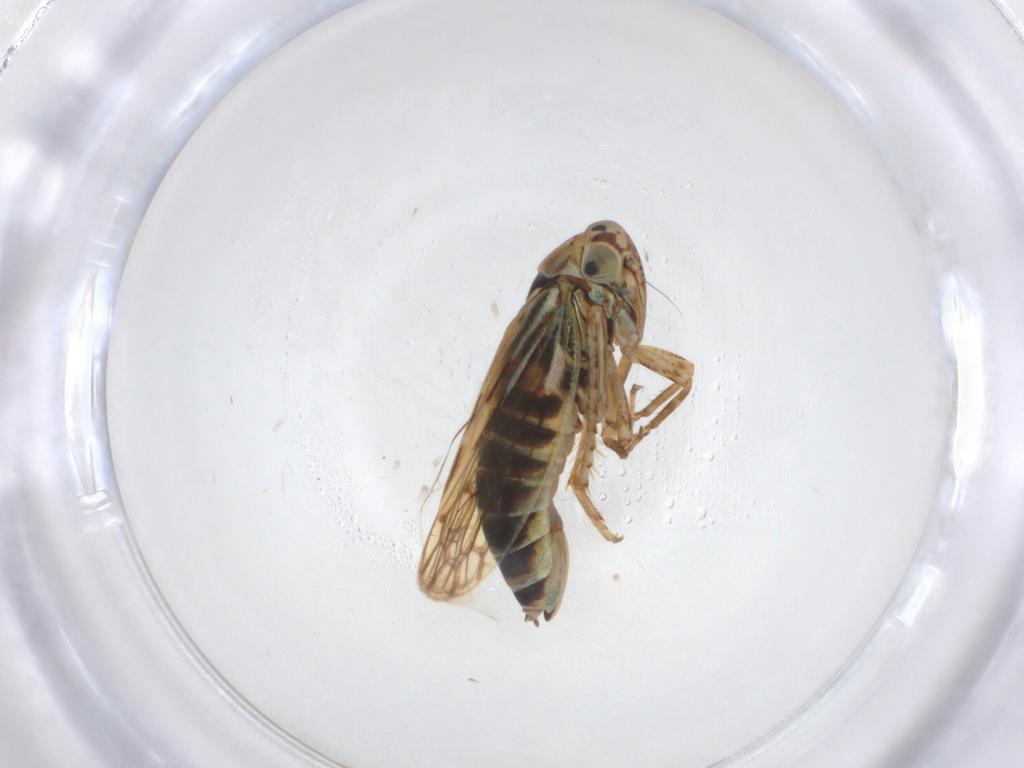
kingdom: Animalia
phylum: Arthropoda
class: Insecta
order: Hemiptera
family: Cicadellidae
